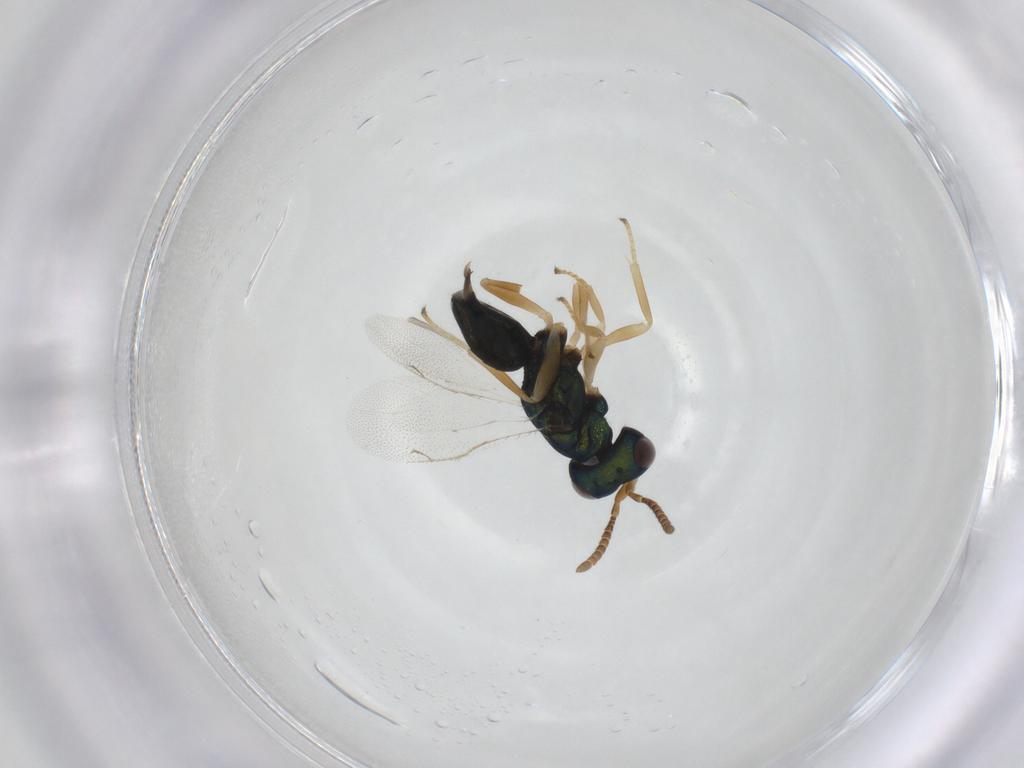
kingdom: Animalia
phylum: Arthropoda
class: Insecta
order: Hymenoptera
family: Pteromalidae
